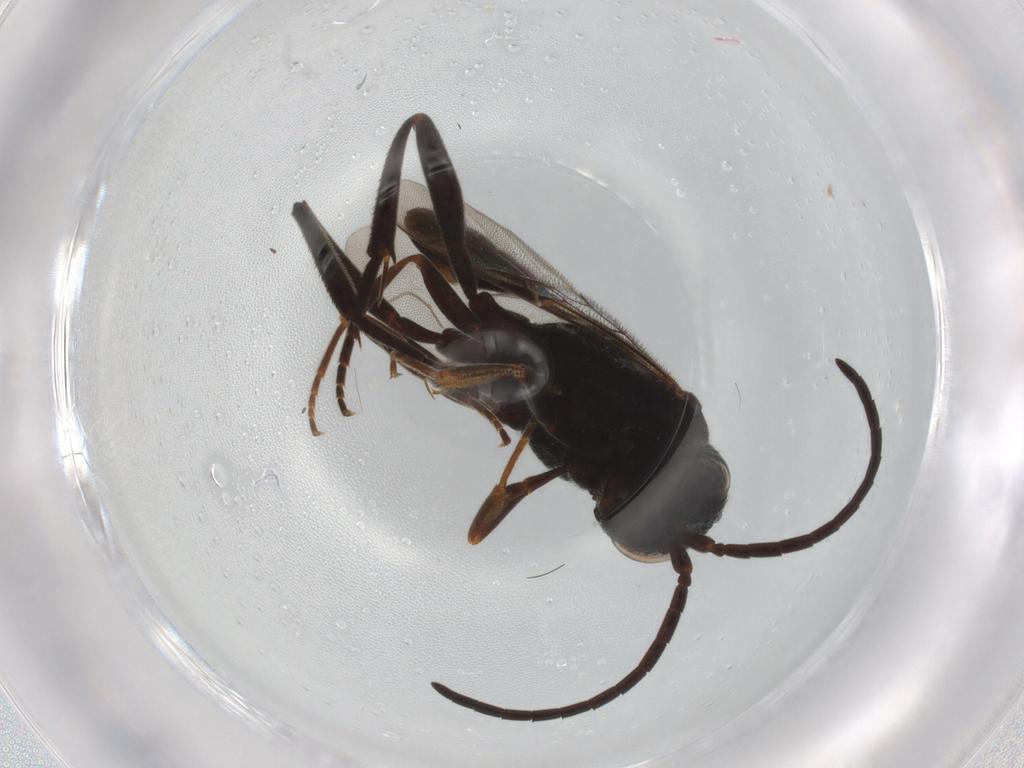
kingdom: Animalia
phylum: Arthropoda
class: Insecta
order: Hymenoptera
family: Evaniidae
